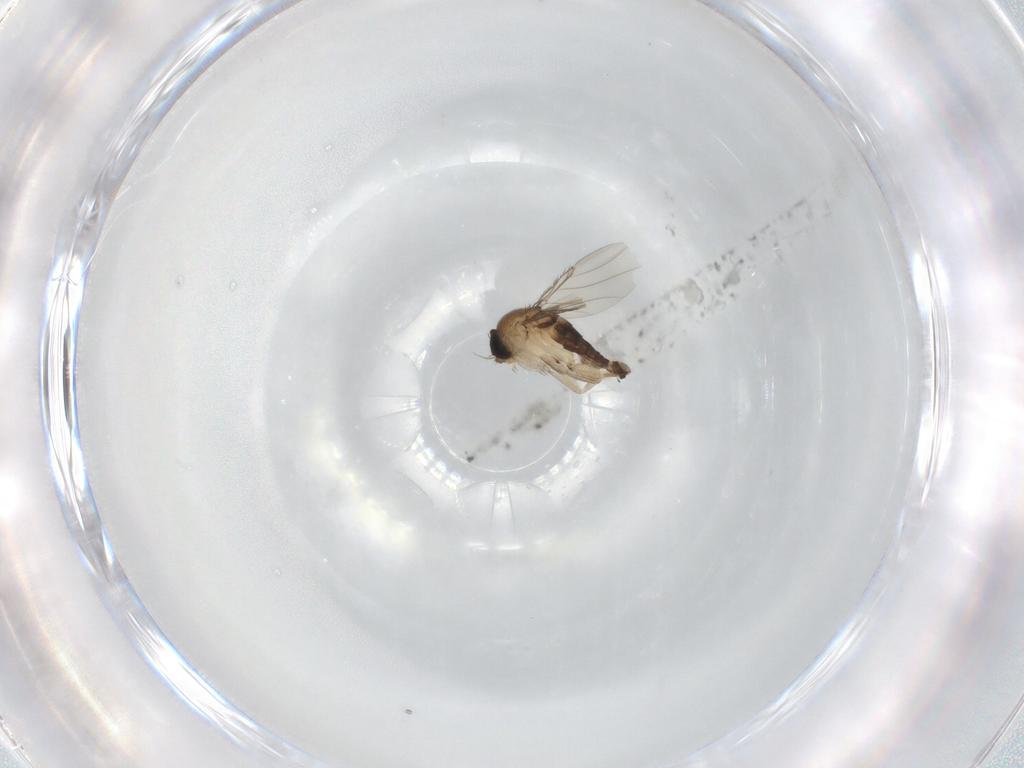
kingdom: Animalia
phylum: Arthropoda
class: Insecta
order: Diptera
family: Phoridae
